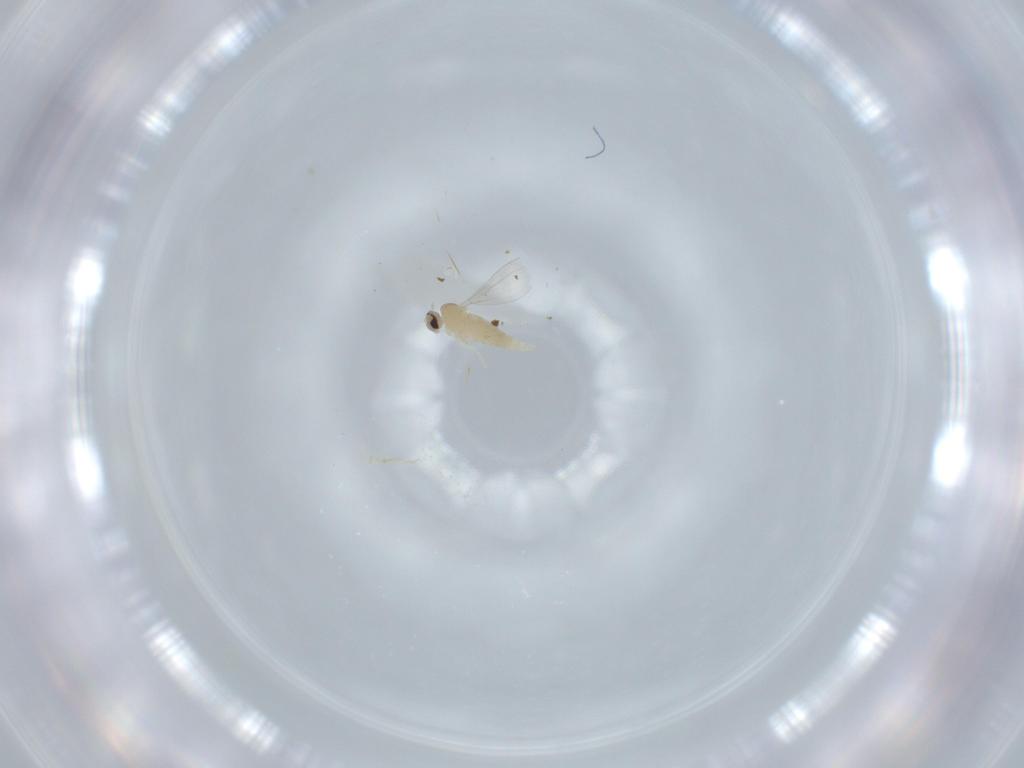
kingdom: Animalia
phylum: Arthropoda
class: Insecta
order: Diptera
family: Cecidomyiidae
